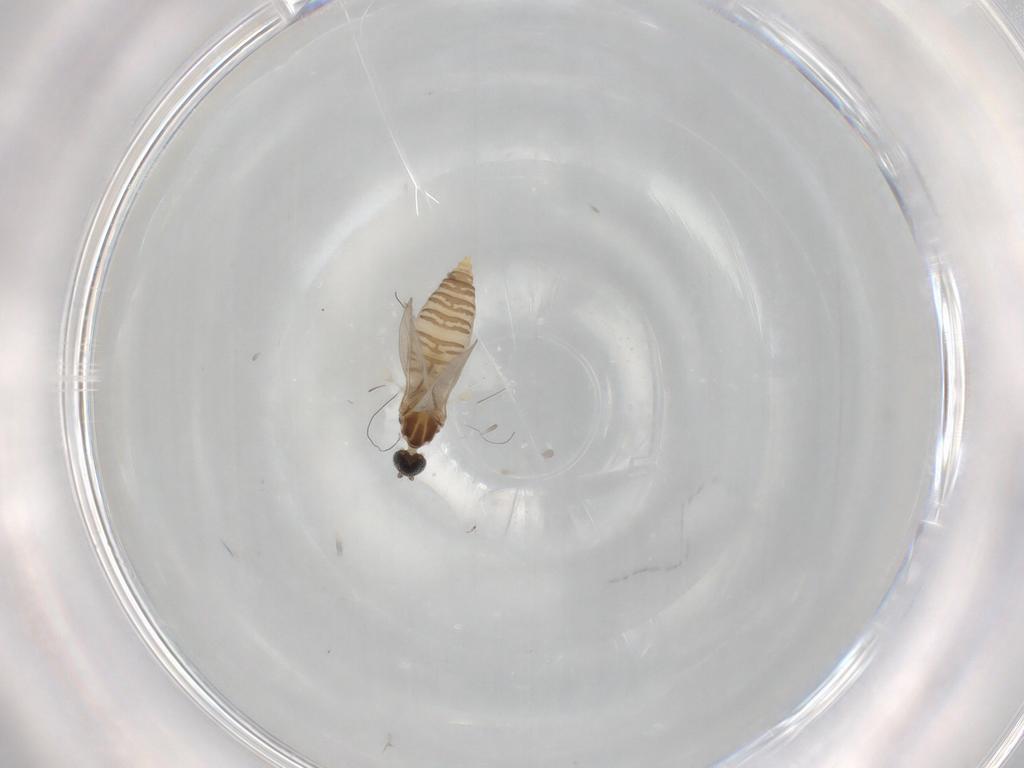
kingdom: Animalia
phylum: Arthropoda
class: Insecta
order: Diptera
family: Cecidomyiidae
